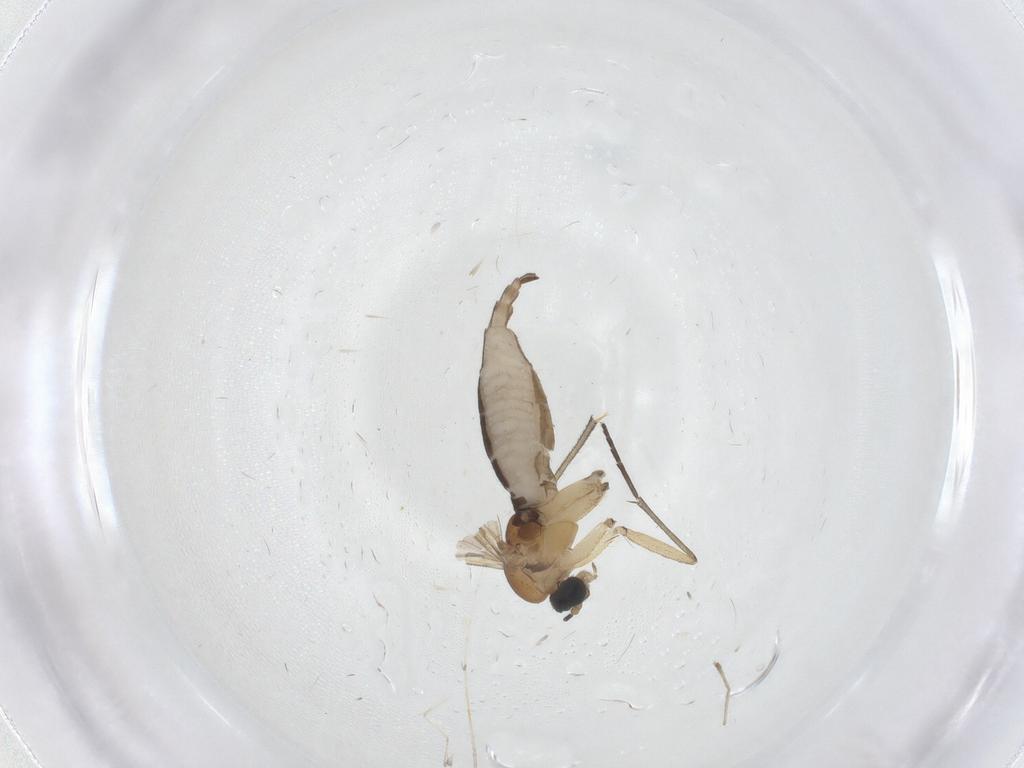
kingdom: Animalia
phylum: Arthropoda
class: Insecta
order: Diptera
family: Sciaridae
